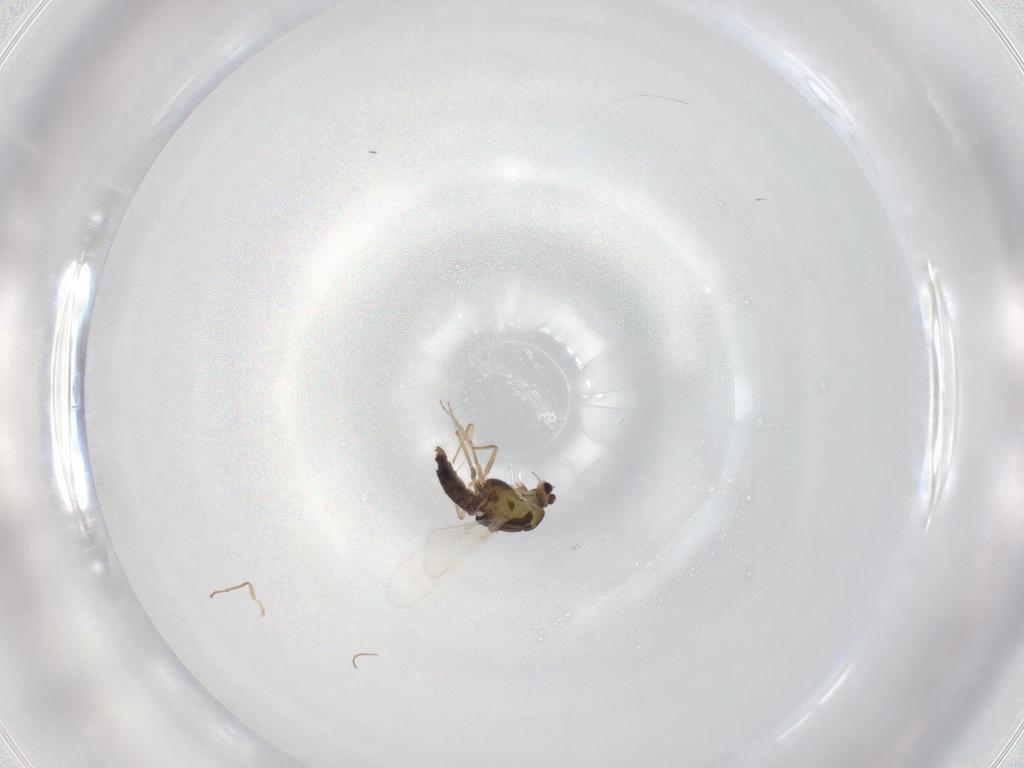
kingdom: Animalia
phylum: Arthropoda
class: Insecta
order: Diptera
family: Chironomidae
